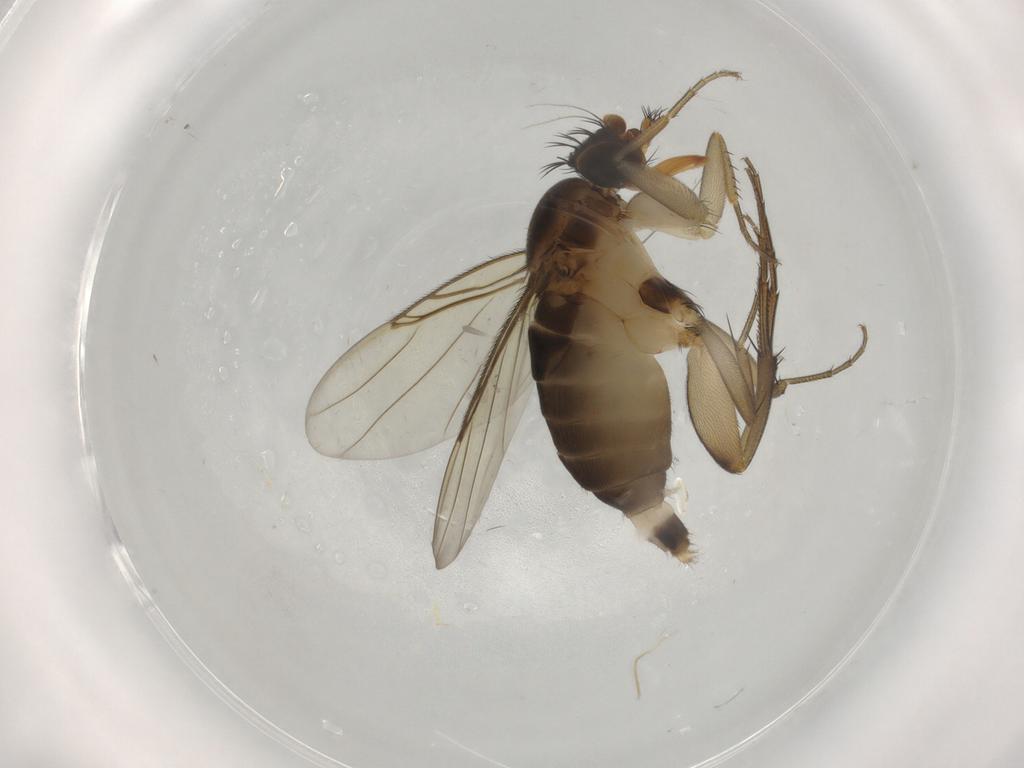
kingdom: Animalia
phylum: Arthropoda
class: Insecta
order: Diptera
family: Phoridae
